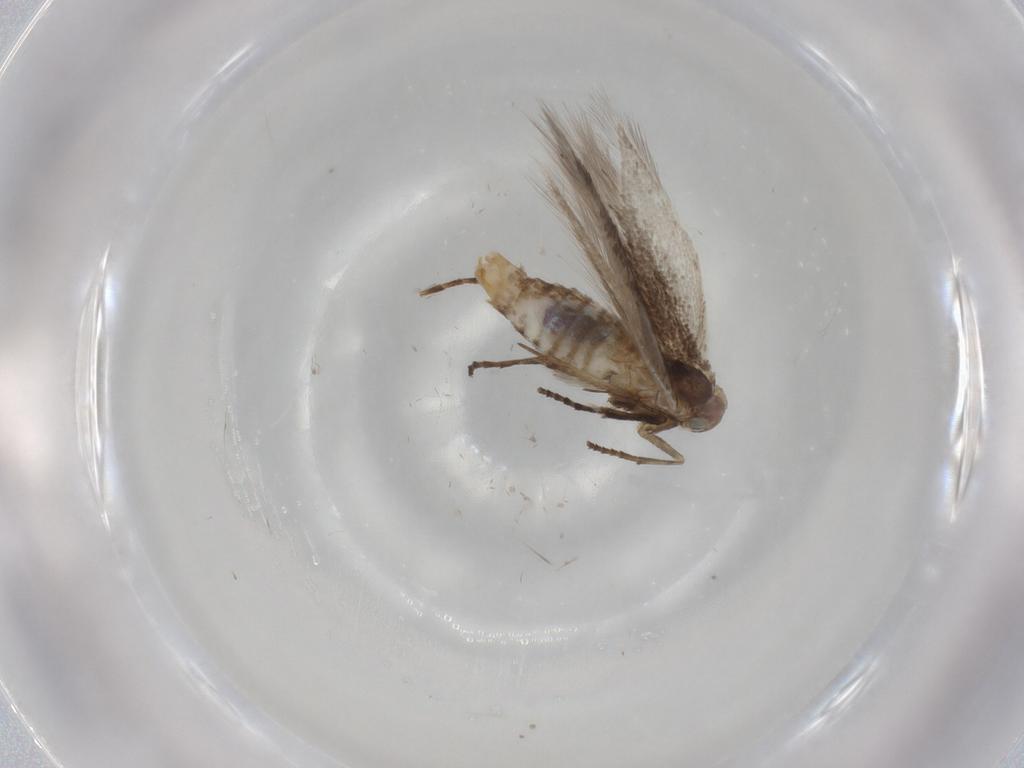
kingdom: Animalia
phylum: Arthropoda
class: Insecta
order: Lepidoptera
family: Bucculatricidae
